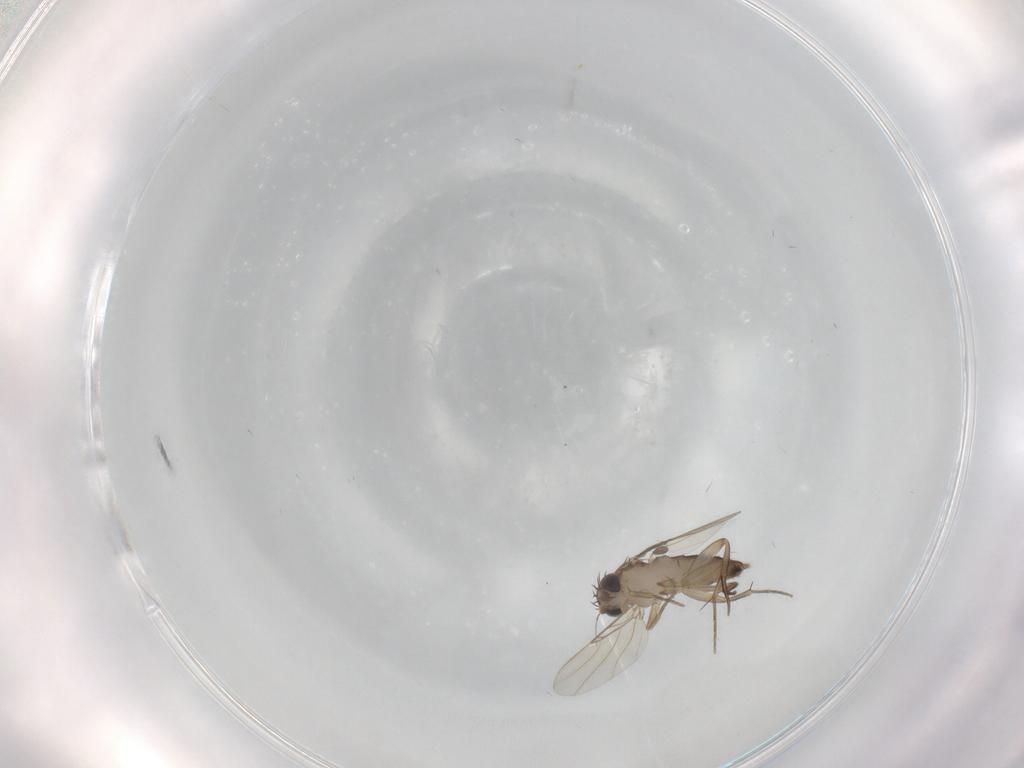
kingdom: Animalia
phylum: Arthropoda
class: Insecta
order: Diptera
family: Phoridae
